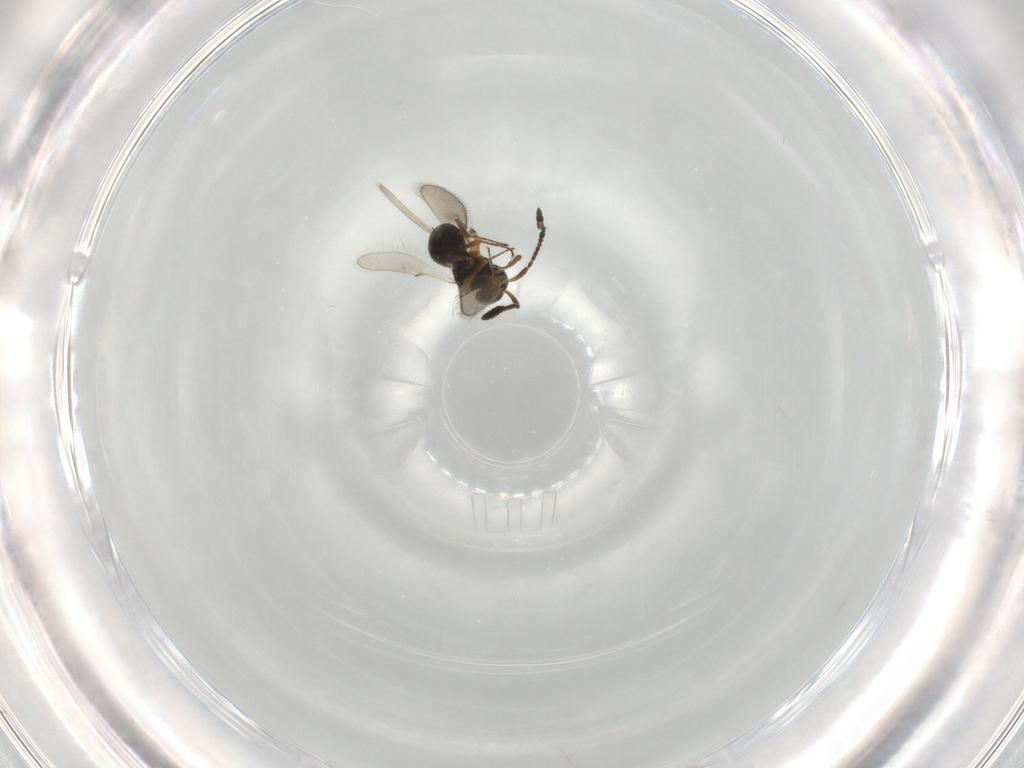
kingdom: Animalia
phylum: Arthropoda
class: Insecta
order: Hymenoptera
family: Scelionidae
